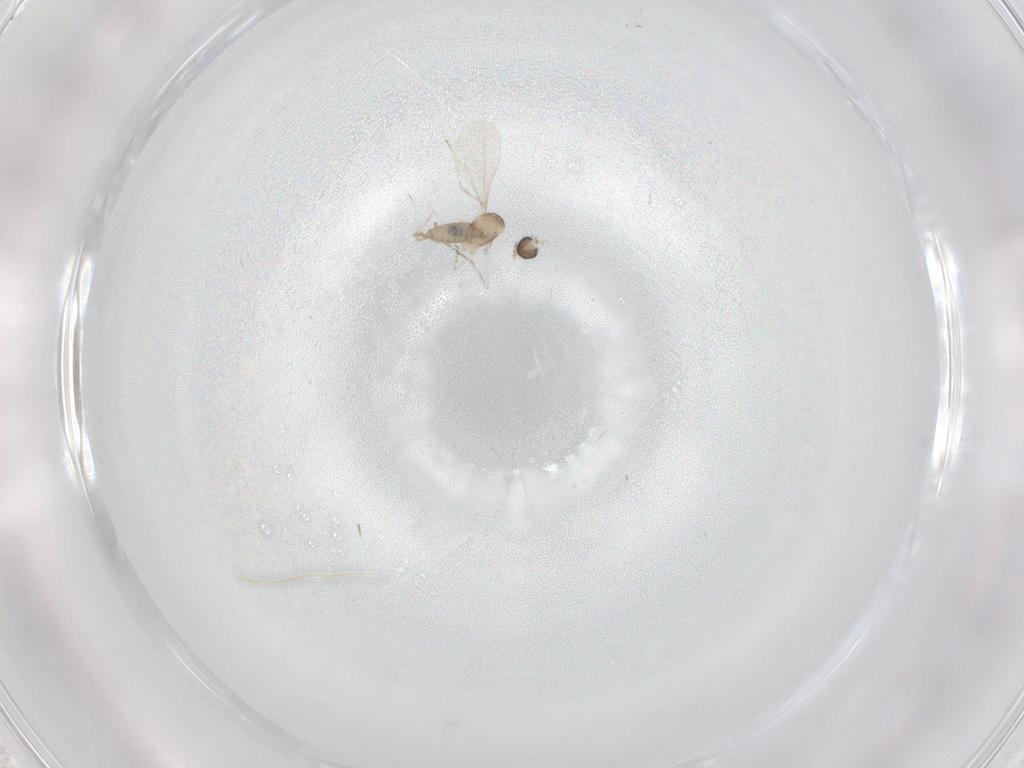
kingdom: Animalia
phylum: Arthropoda
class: Insecta
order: Diptera
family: Cecidomyiidae
